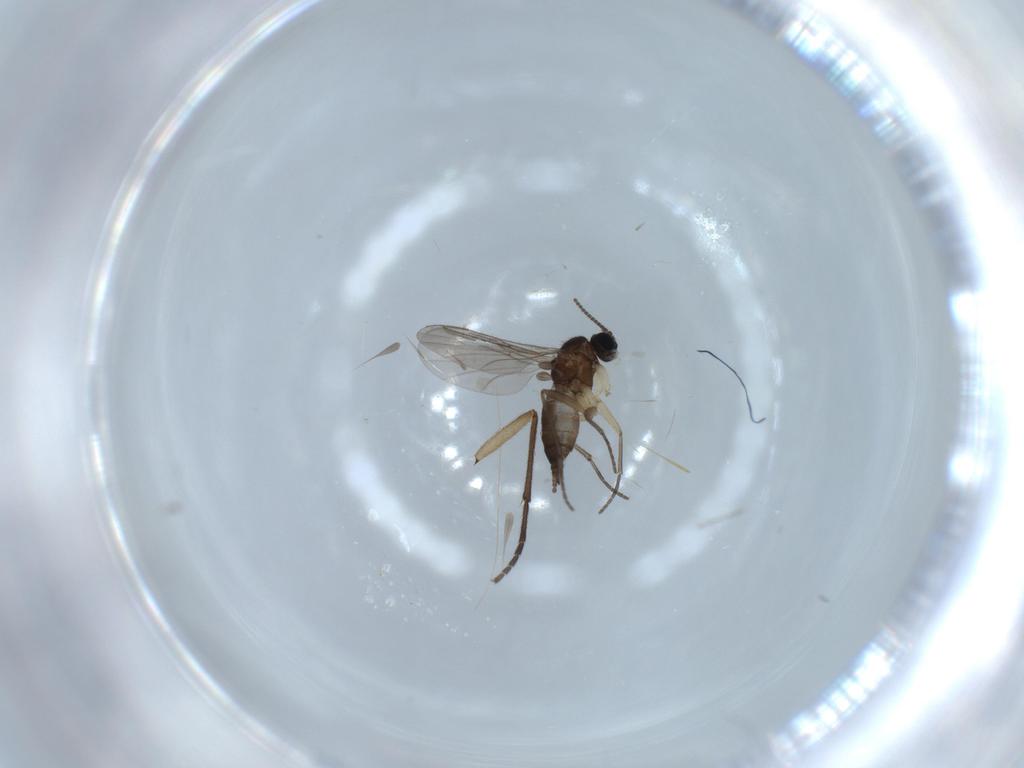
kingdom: Animalia
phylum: Arthropoda
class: Insecta
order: Diptera
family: Sciaridae
